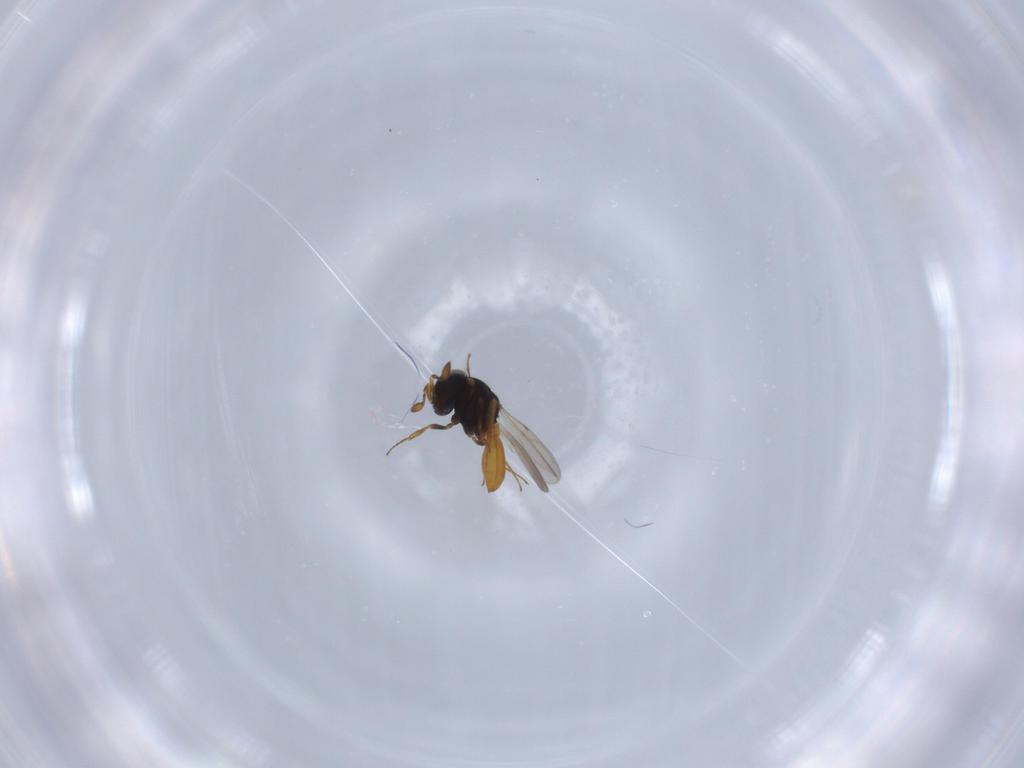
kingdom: Animalia
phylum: Arthropoda
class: Insecta
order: Hymenoptera
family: Scelionidae
